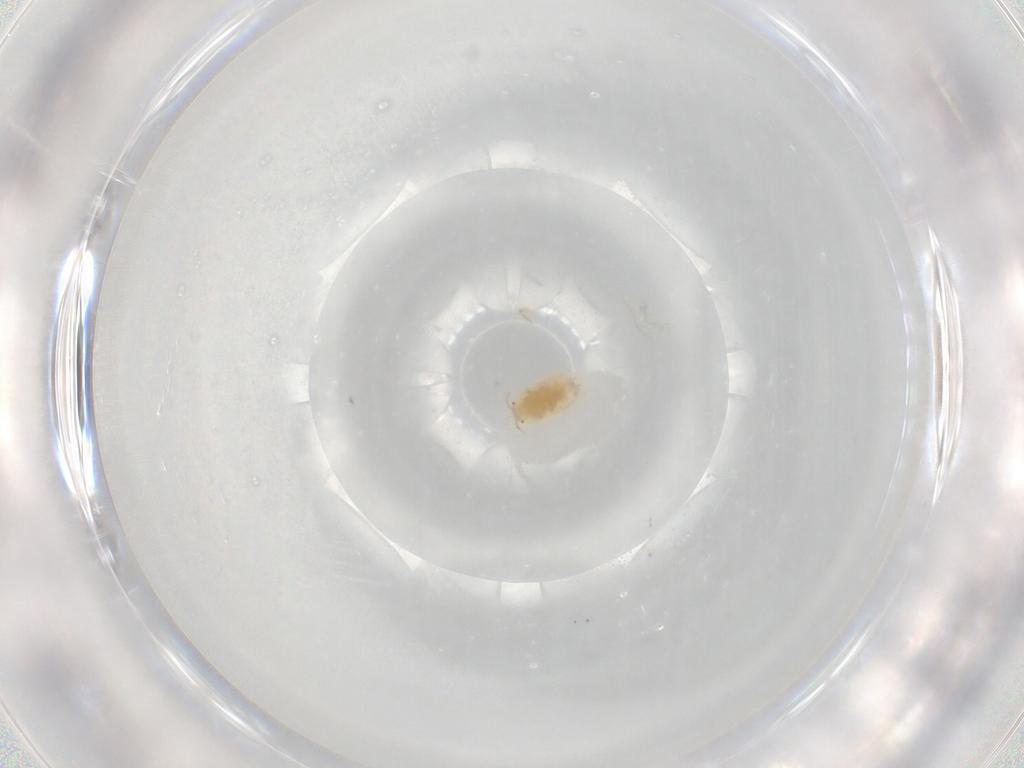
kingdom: Animalia
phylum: Arthropoda
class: Insecta
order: Hemiptera
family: Pseudococcidae
